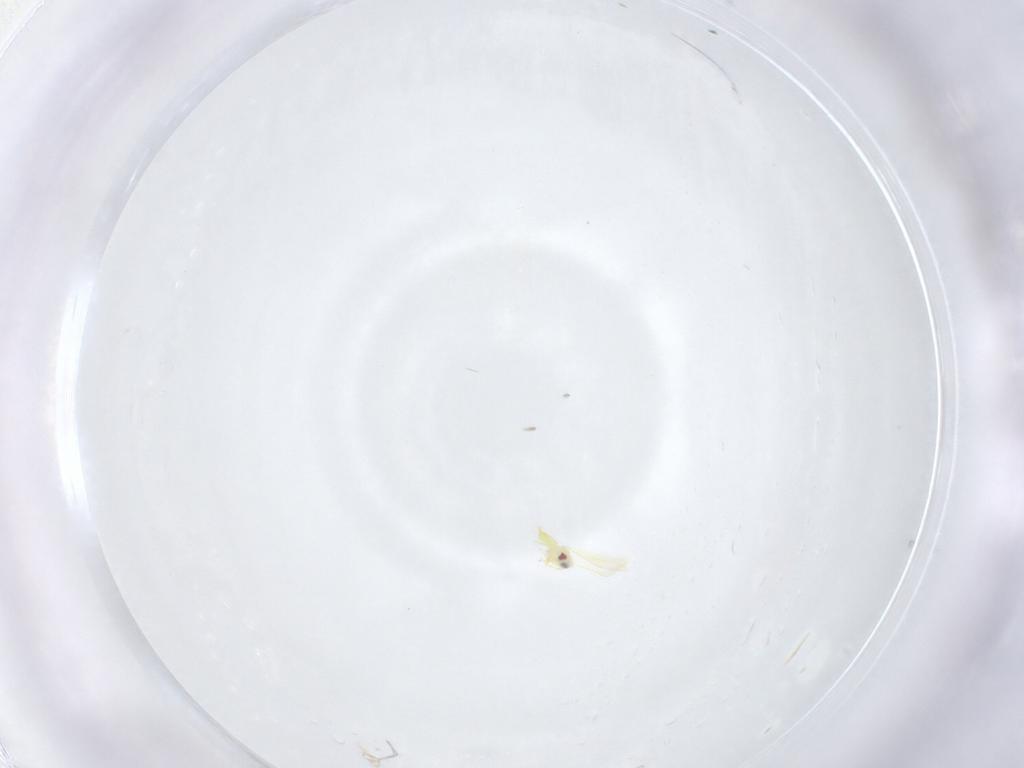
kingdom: Animalia
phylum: Arthropoda
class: Insecta
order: Hemiptera
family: Aleyrodidae
